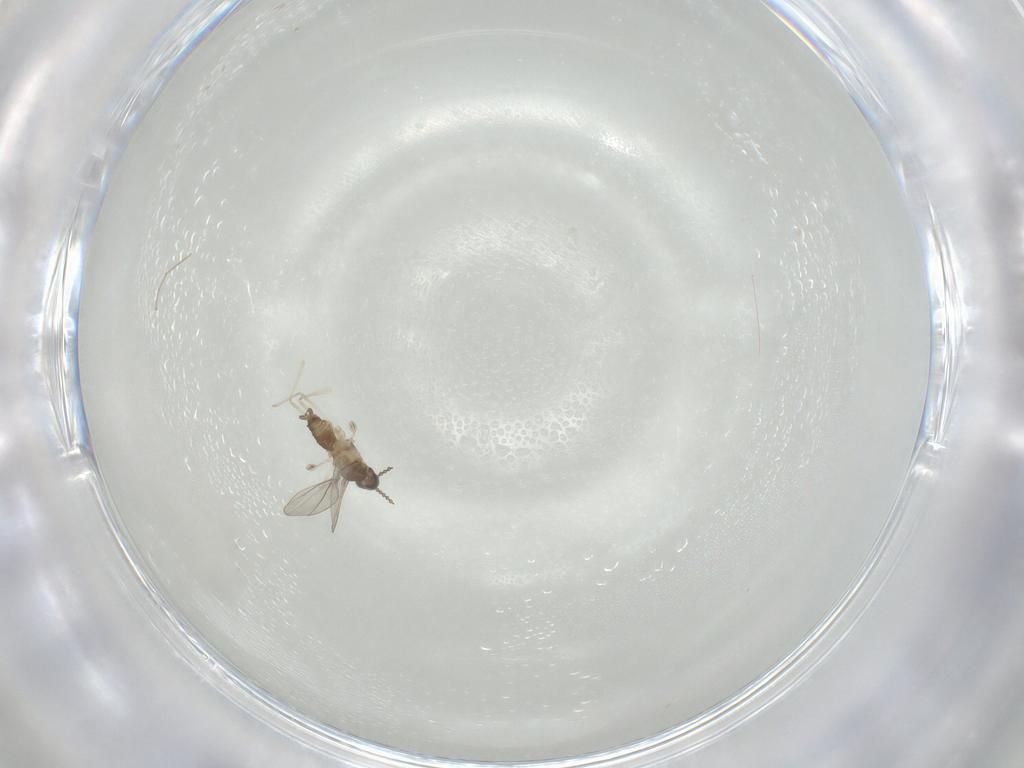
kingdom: Animalia
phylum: Arthropoda
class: Insecta
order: Diptera
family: Cecidomyiidae
